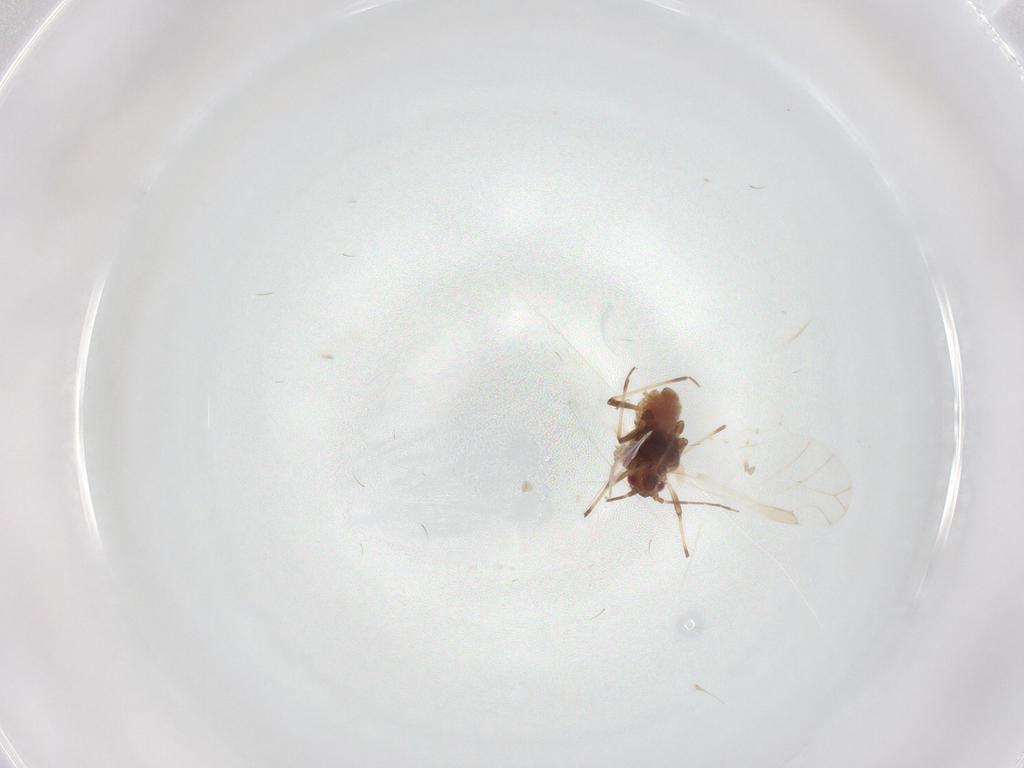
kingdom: Animalia
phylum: Arthropoda
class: Insecta
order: Hemiptera
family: Aphididae
